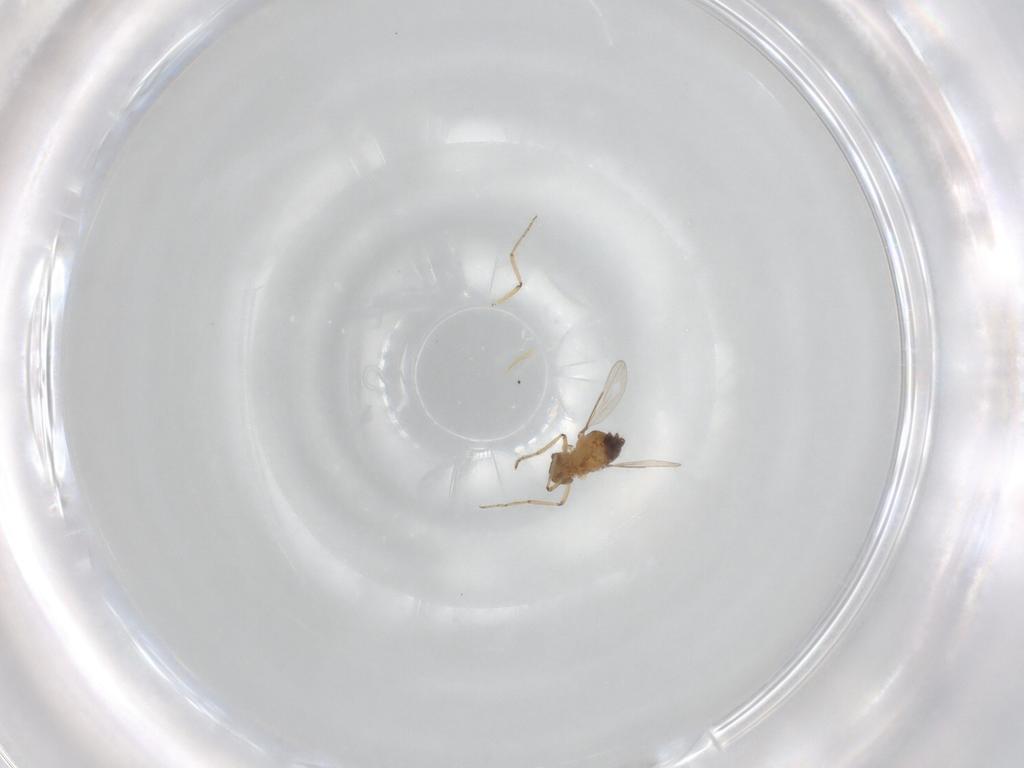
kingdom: Animalia
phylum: Arthropoda
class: Insecta
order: Diptera
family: Ceratopogonidae
